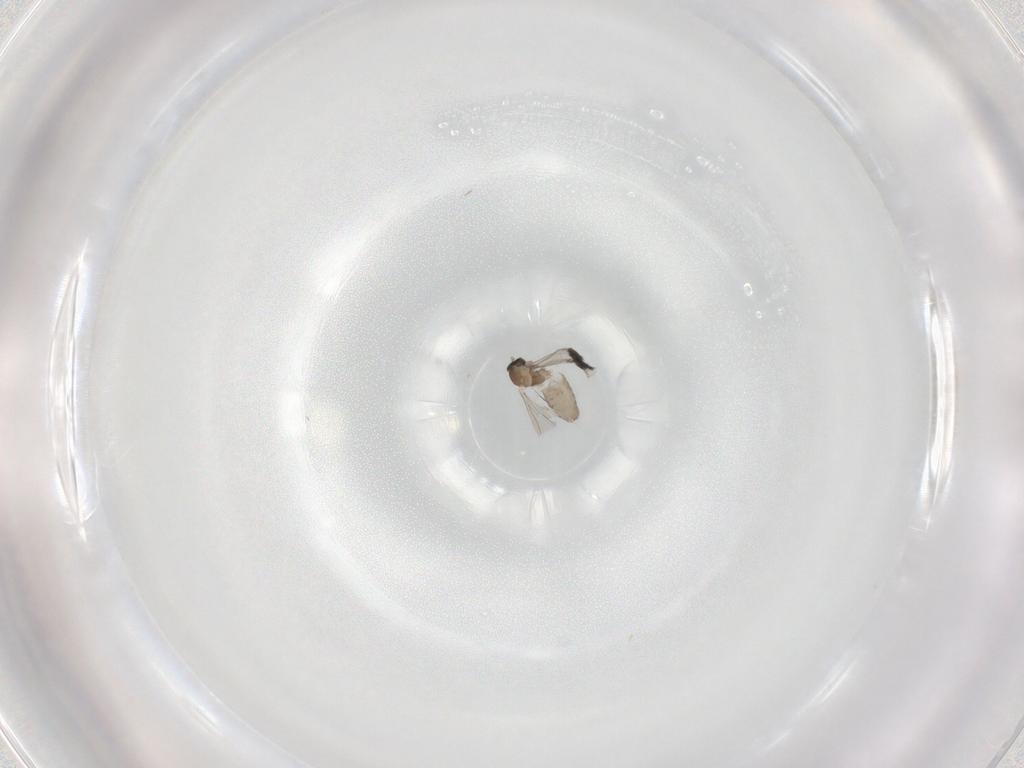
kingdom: Animalia
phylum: Arthropoda
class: Insecta
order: Diptera
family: Cecidomyiidae
